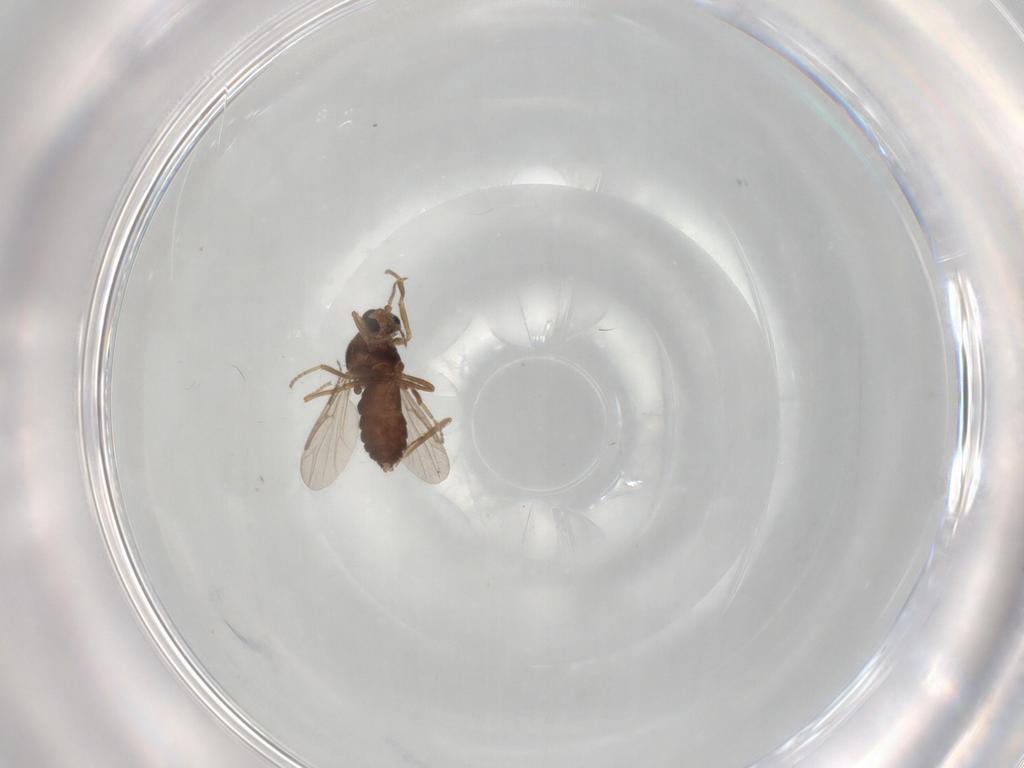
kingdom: Animalia
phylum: Arthropoda
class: Insecta
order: Diptera
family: Ceratopogonidae
